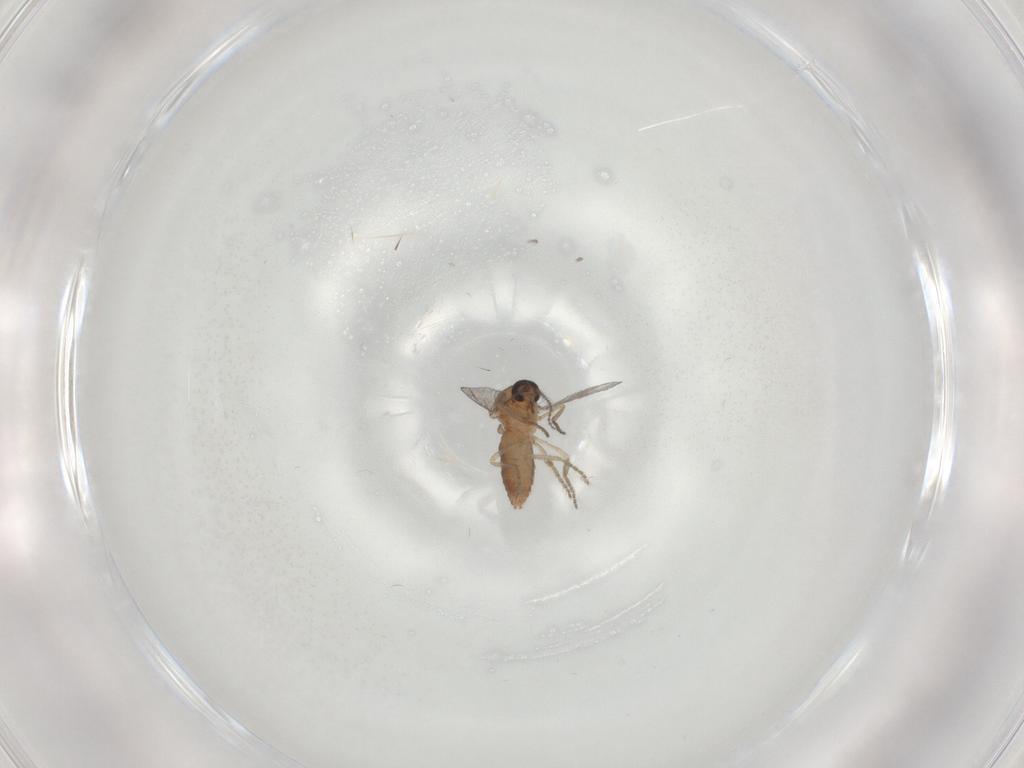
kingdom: Animalia
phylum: Arthropoda
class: Insecta
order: Diptera
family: Ceratopogonidae
